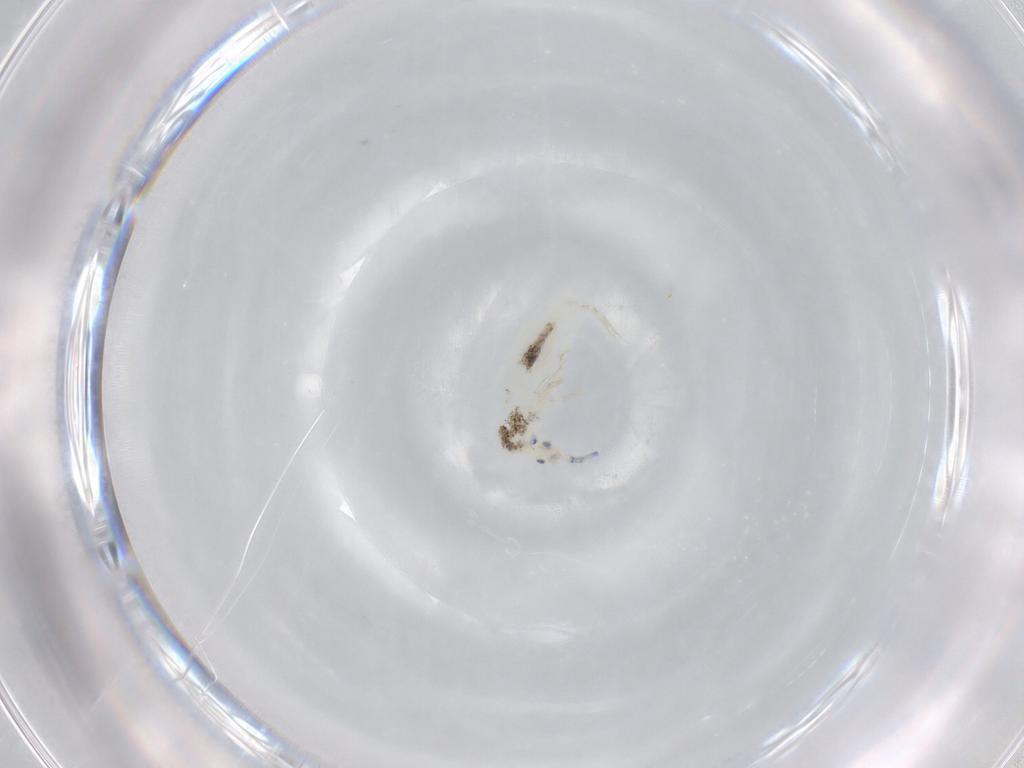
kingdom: Animalia
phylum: Arthropoda
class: Collembola
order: Entomobryomorpha
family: Entomobryidae
